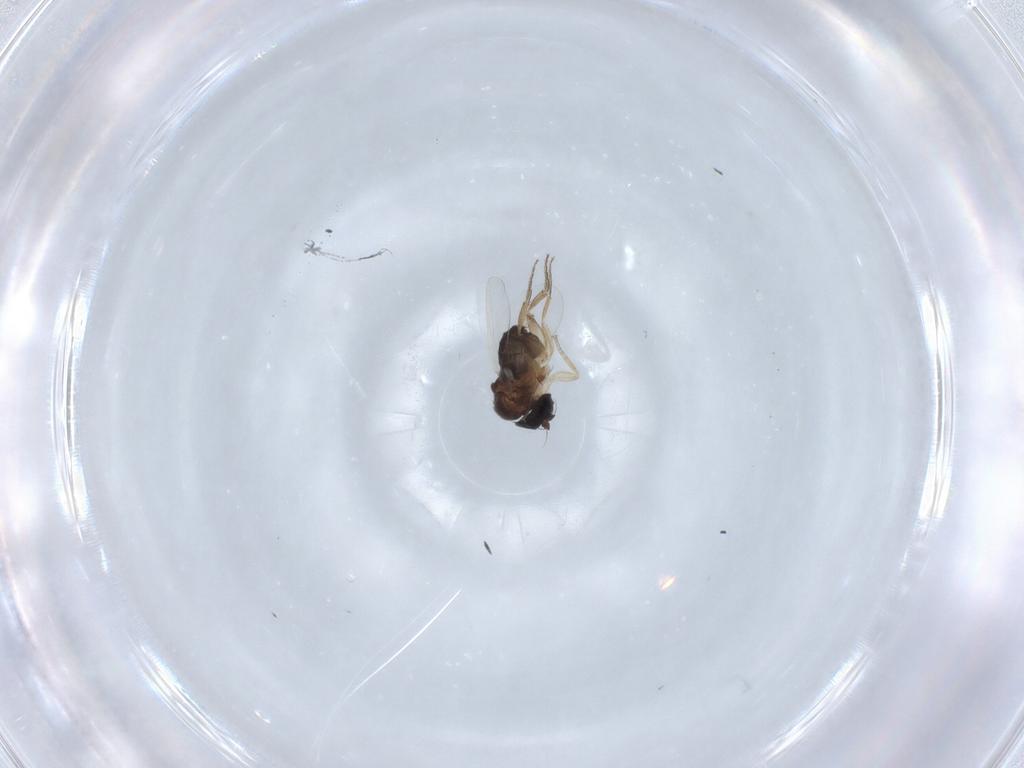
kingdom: Animalia
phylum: Arthropoda
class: Insecta
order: Diptera
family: Phoridae
